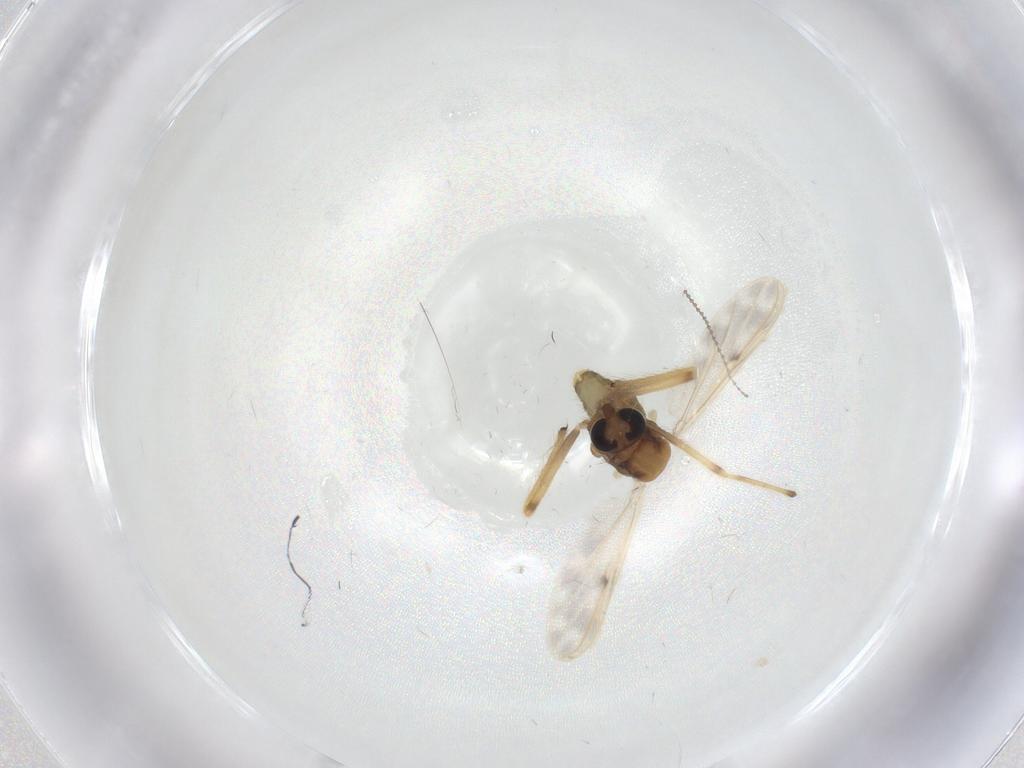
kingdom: Animalia
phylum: Arthropoda
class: Insecta
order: Diptera
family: Chironomidae
